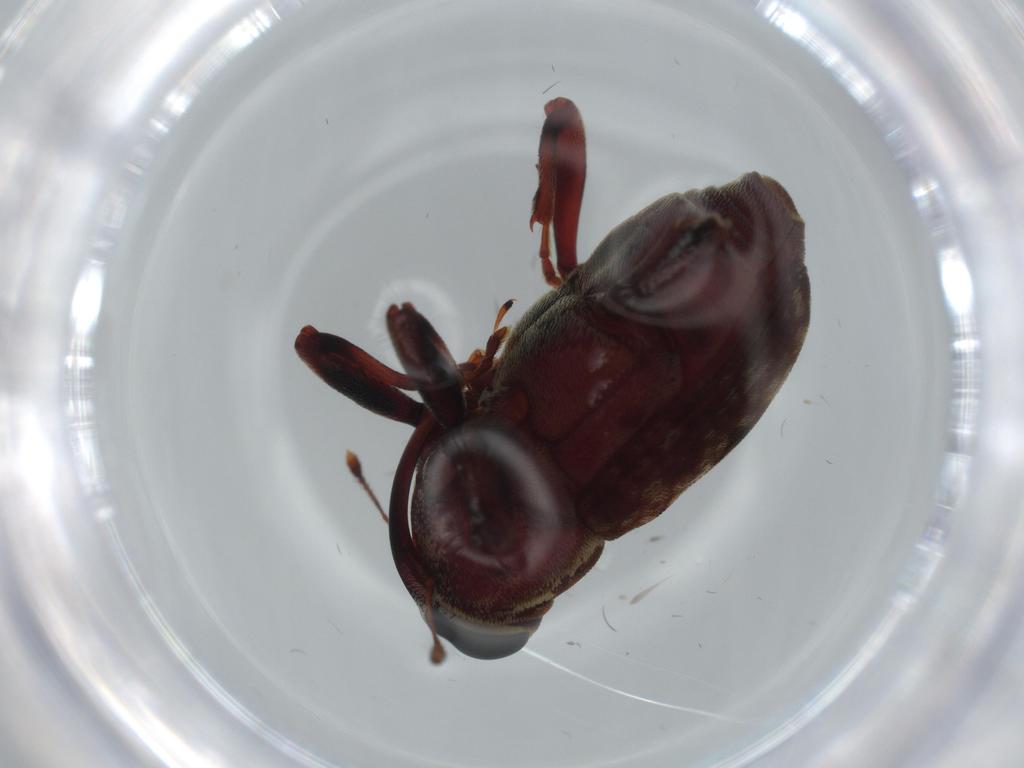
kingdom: Animalia
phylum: Arthropoda
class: Insecta
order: Coleoptera
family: Curculionidae
